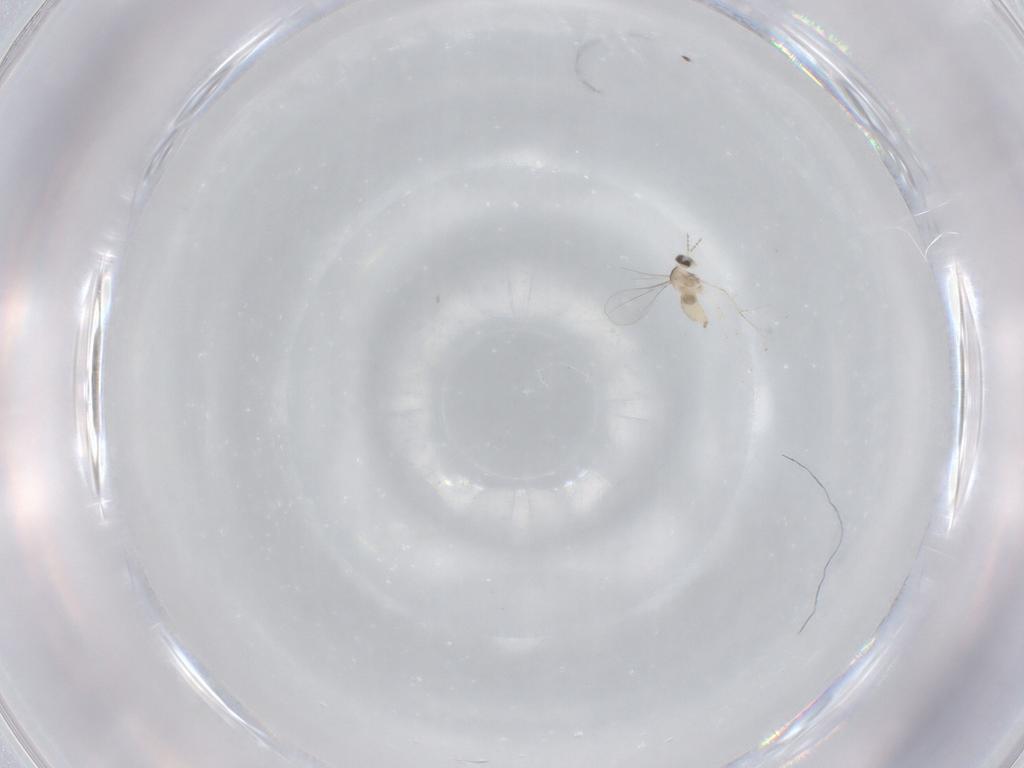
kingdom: Animalia
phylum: Arthropoda
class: Insecta
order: Diptera
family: Cecidomyiidae
